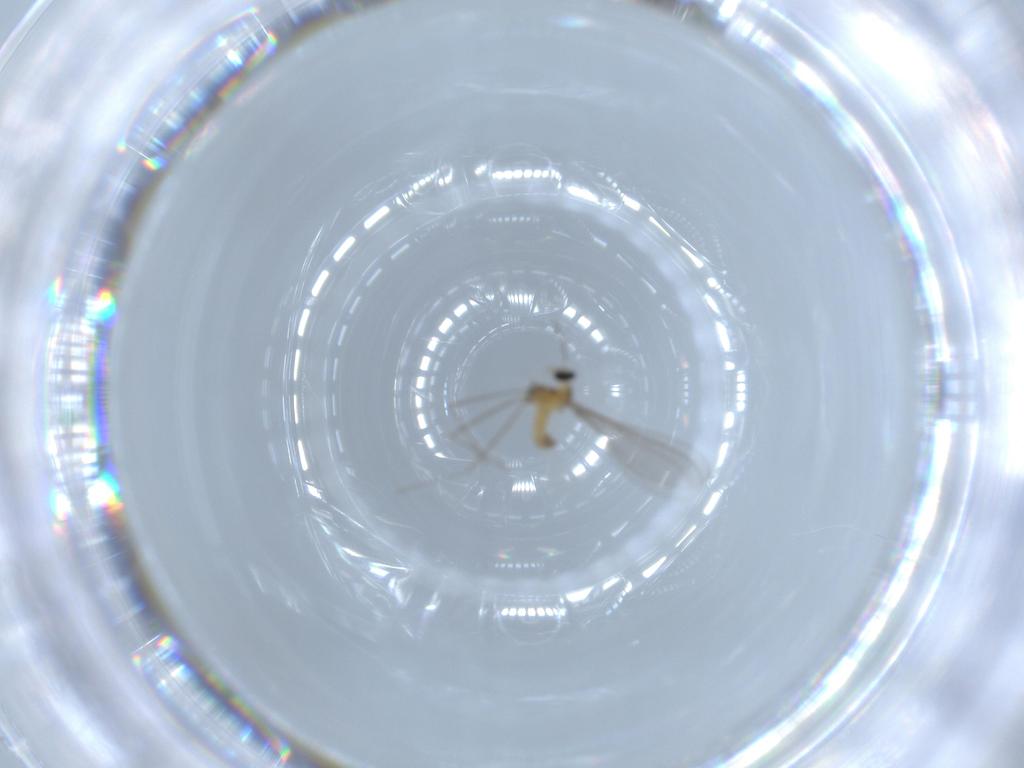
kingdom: Animalia
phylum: Arthropoda
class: Insecta
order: Diptera
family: Cecidomyiidae
